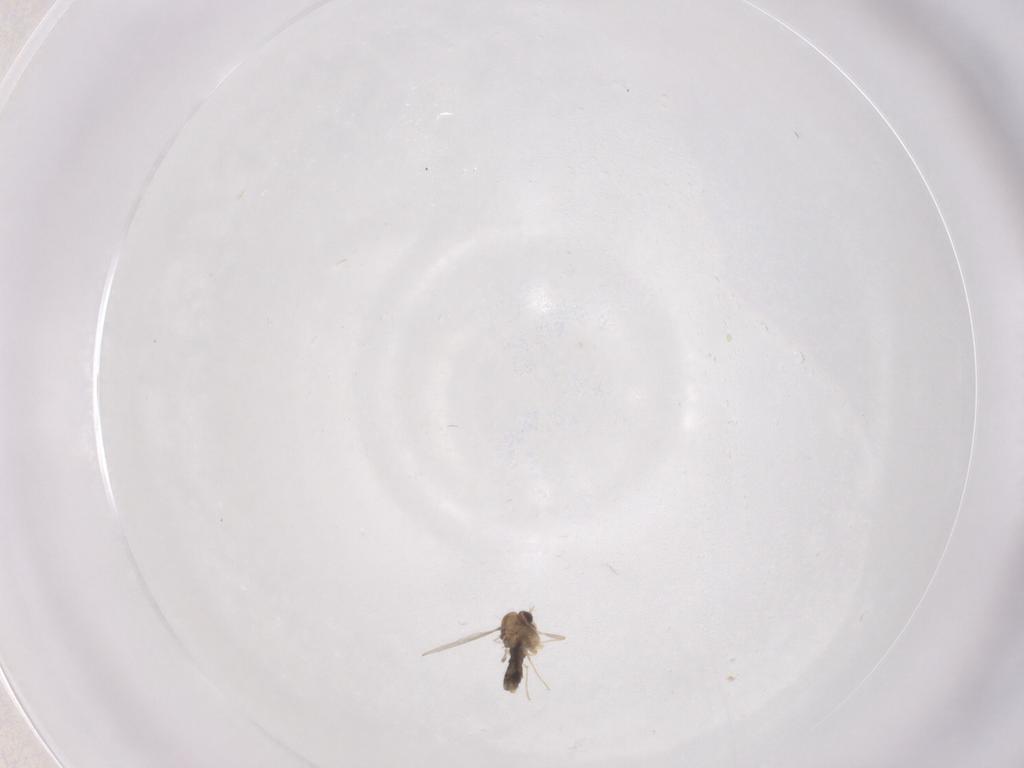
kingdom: Animalia
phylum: Arthropoda
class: Insecta
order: Diptera
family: Chironomidae
